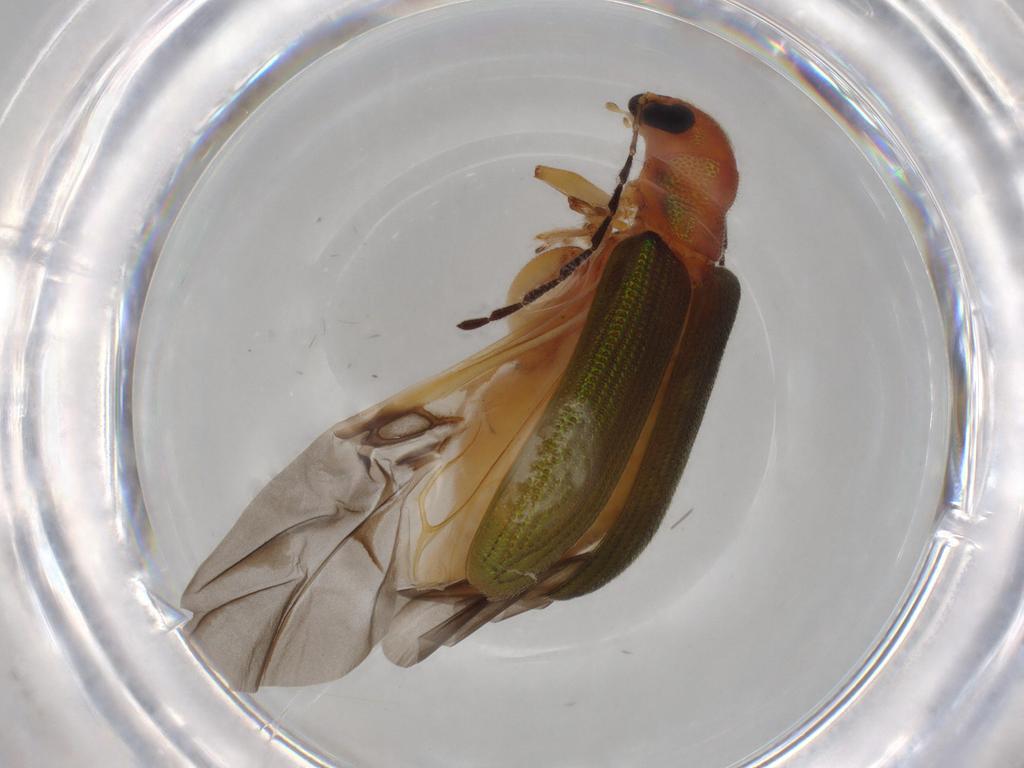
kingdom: Animalia
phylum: Arthropoda
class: Insecta
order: Coleoptera
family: Chrysomelidae
